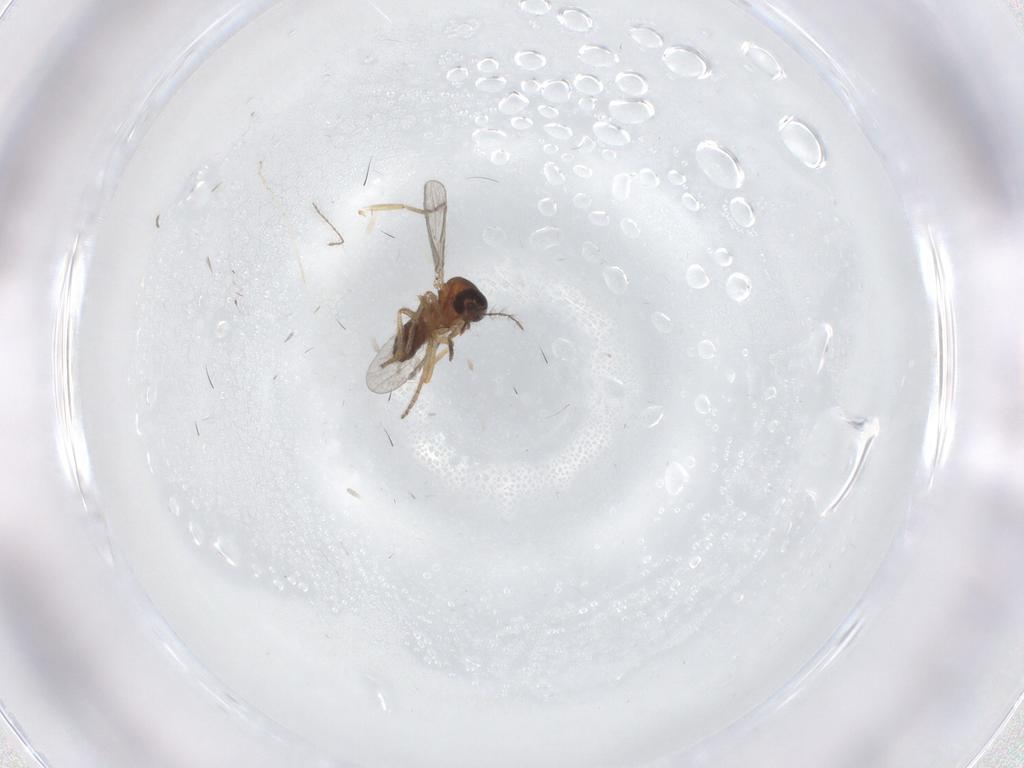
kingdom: Animalia
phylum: Arthropoda
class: Insecta
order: Diptera
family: Ceratopogonidae
